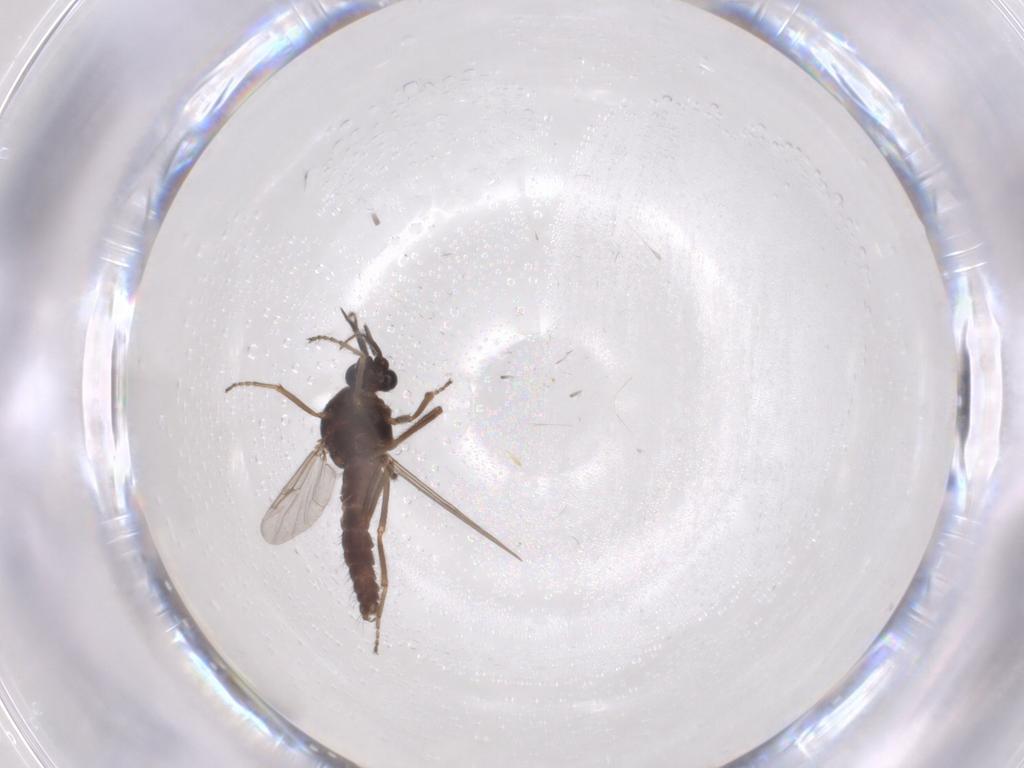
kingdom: Animalia
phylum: Arthropoda
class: Insecta
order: Diptera
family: Ceratopogonidae
